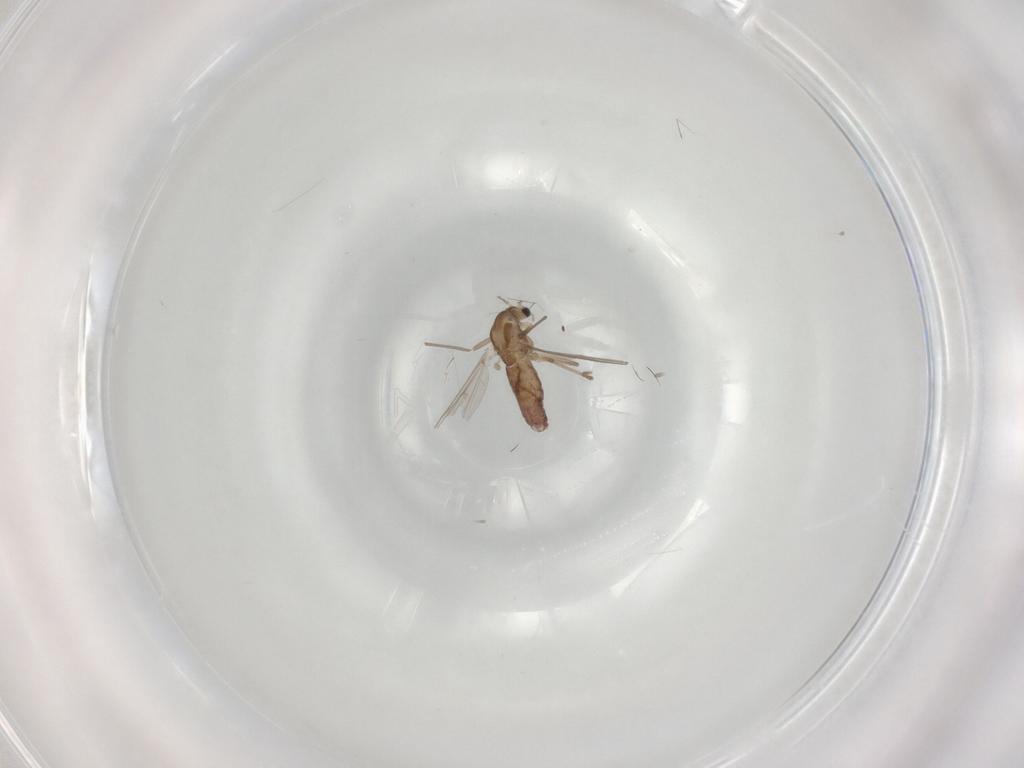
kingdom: Animalia
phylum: Arthropoda
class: Insecta
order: Diptera
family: Chironomidae
